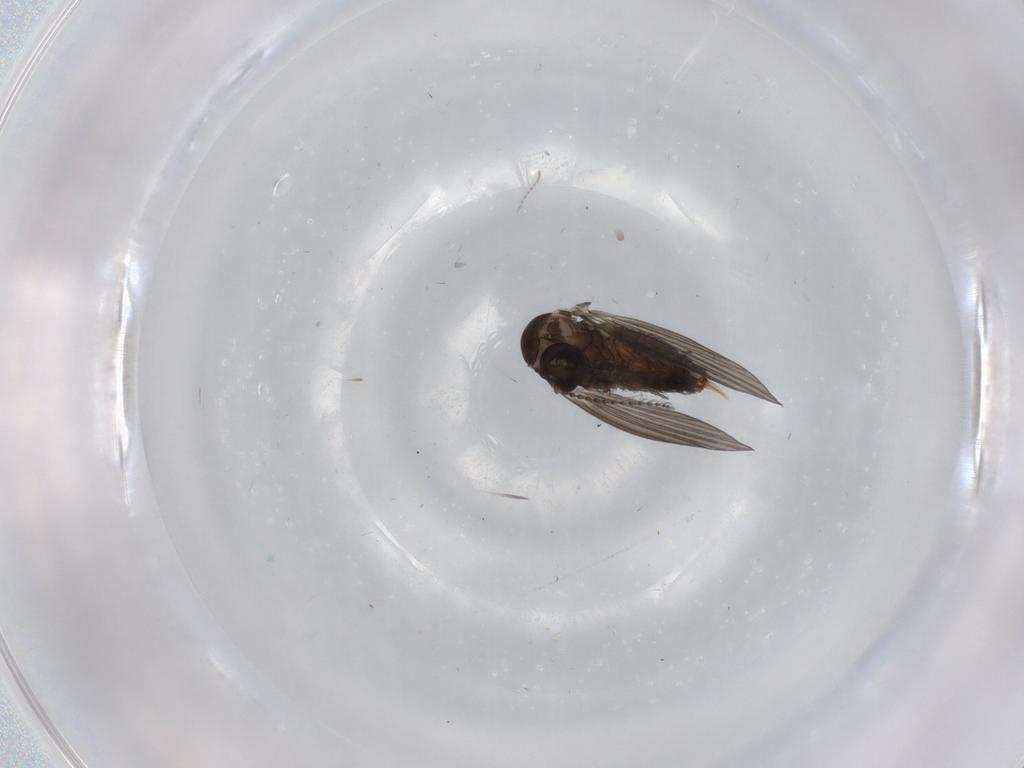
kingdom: Animalia
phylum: Arthropoda
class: Insecta
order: Diptera
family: Psychodidae
